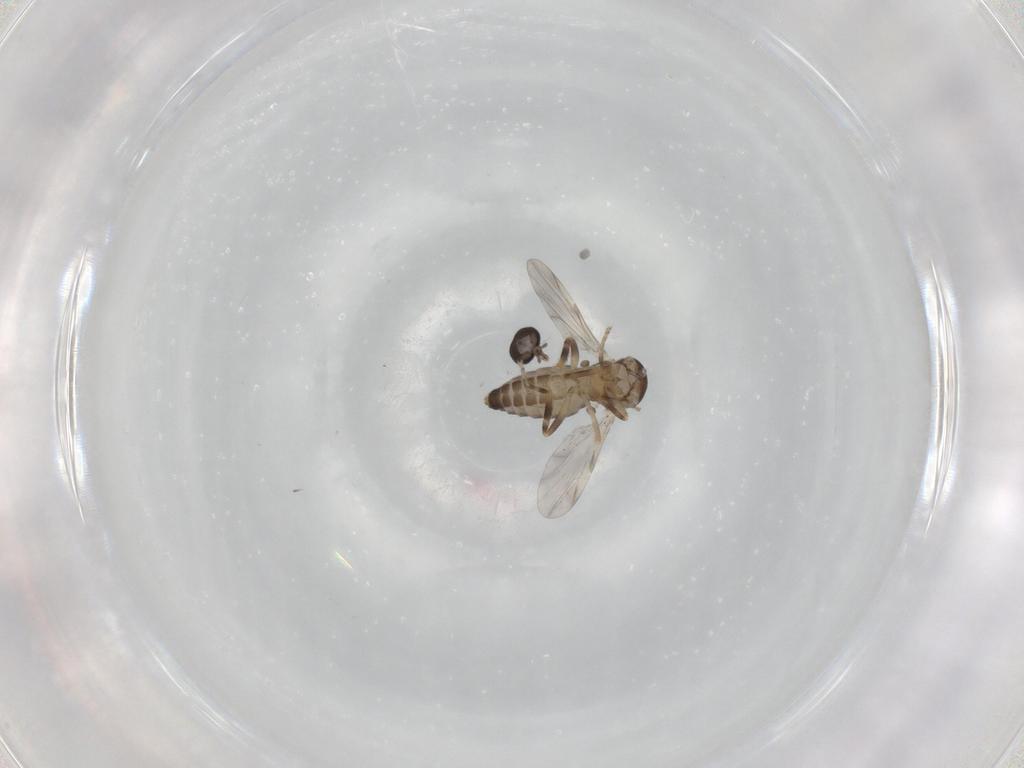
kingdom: Animalia
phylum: Arthropoda
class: Insecta
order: Diptera
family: Ceratopogonidae
